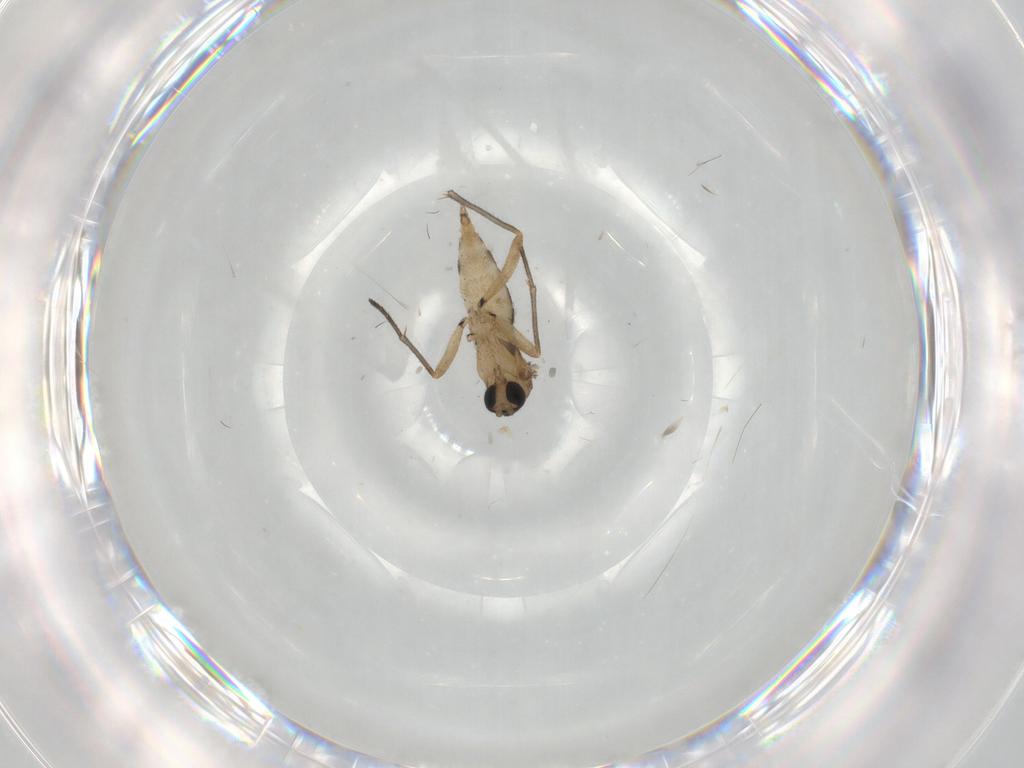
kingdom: Animalia
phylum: Arthropoda
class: Insecta
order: Diptera
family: Sciaridae
